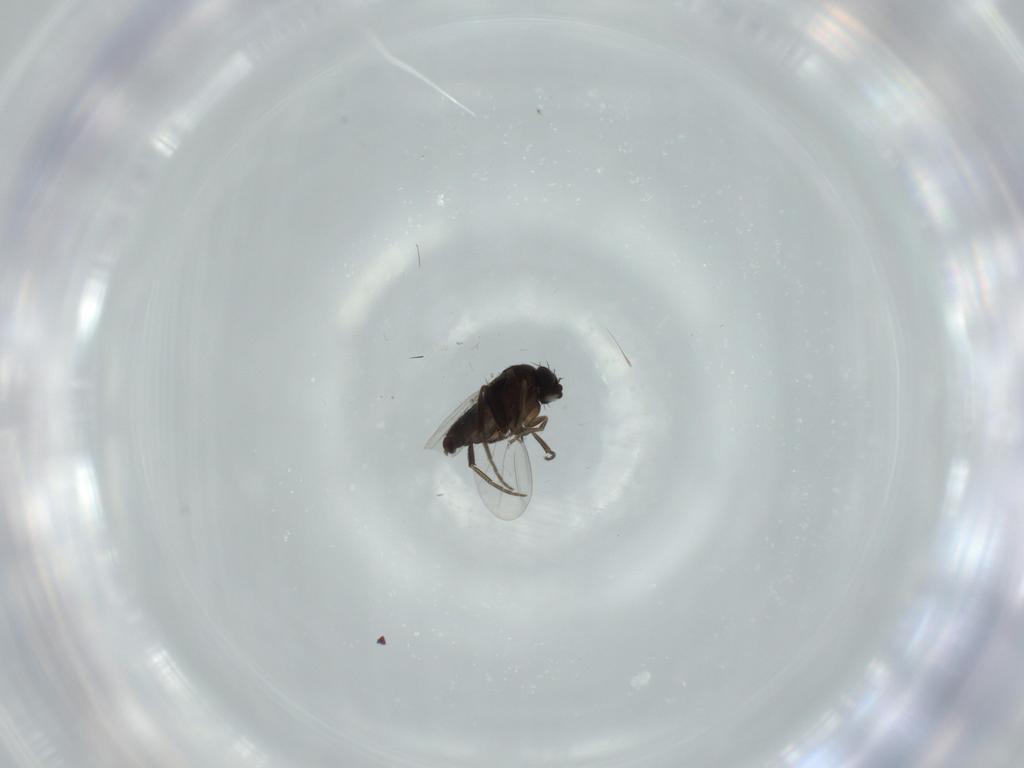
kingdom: Animalia
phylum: Arthropoda
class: Insecta
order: Diptera
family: Phoridae
